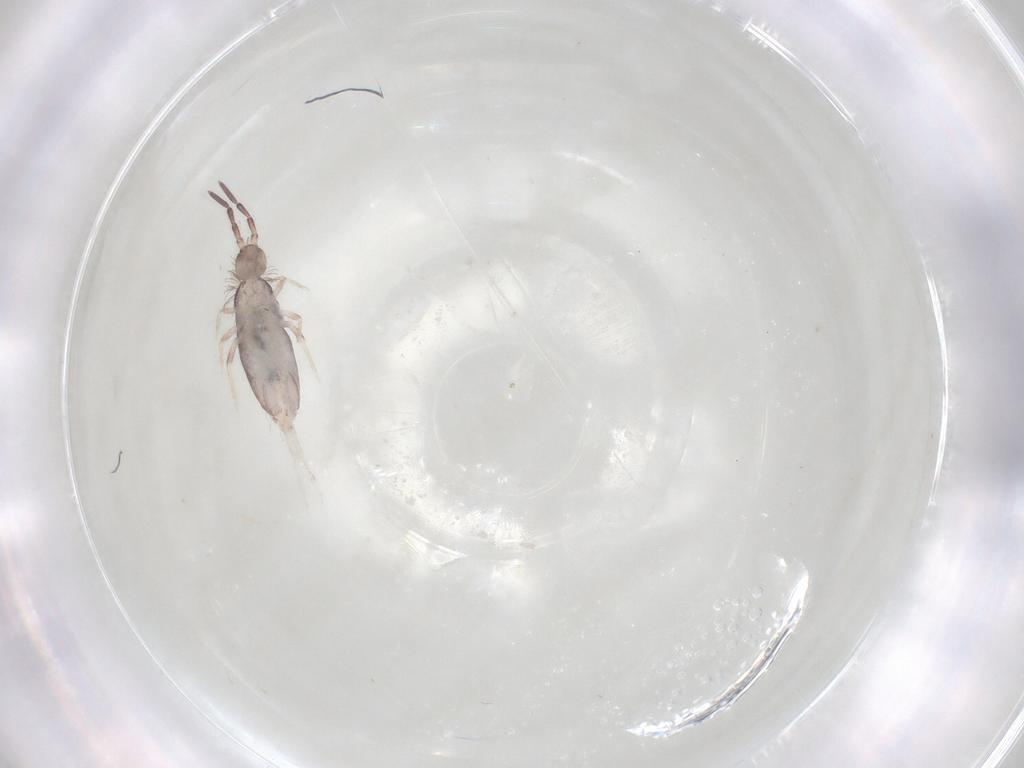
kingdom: Animalia
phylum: Arthropoda
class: Collembola
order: Poduromorpha
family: Hypogastruridae
